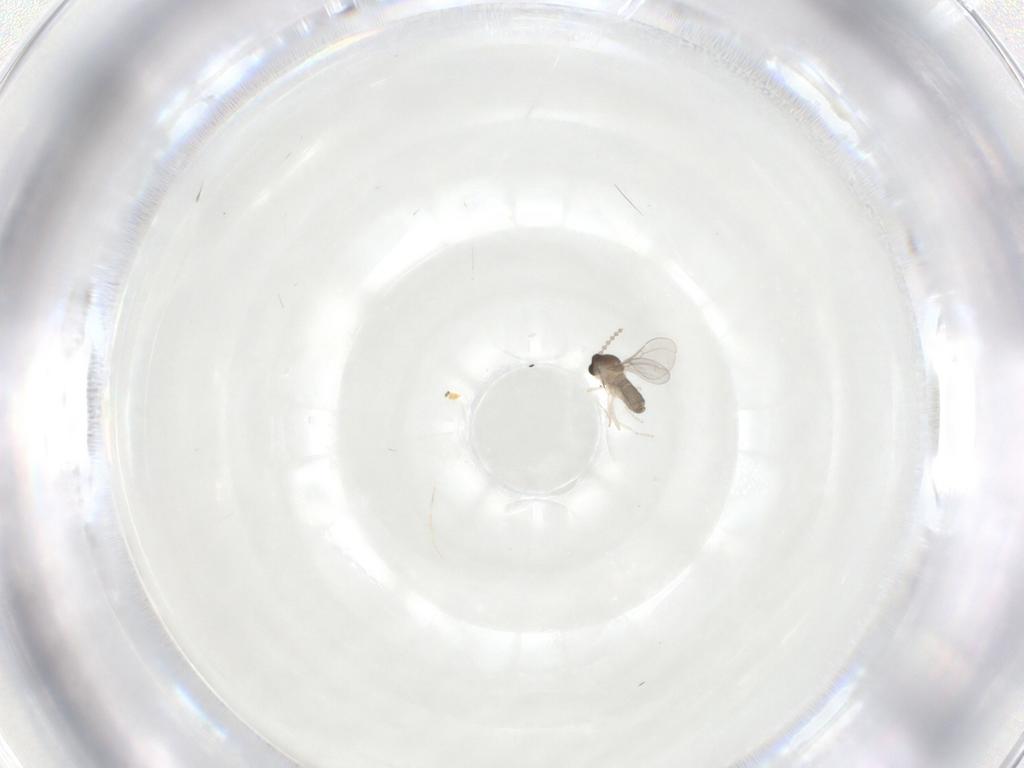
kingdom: Animalia
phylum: Arthropoda
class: Insecta
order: Diptera
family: Cecidomyiidae
